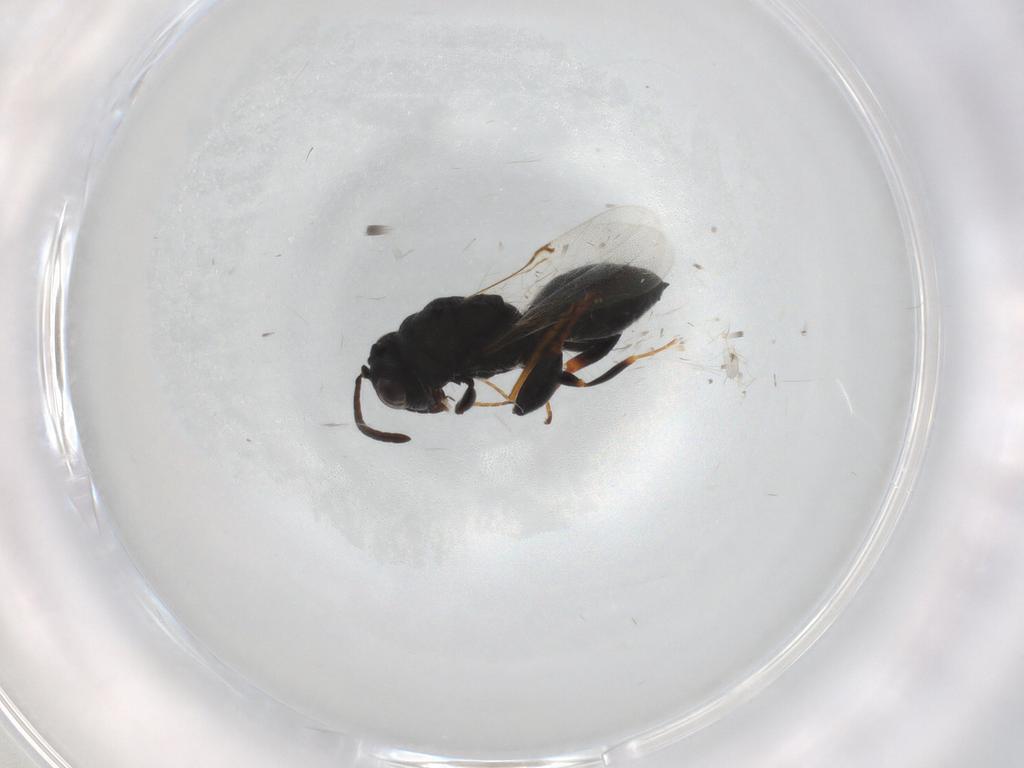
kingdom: Animalia
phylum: Arthropoda
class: Insecta
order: Hymenoptera
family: Ichneumonidae
